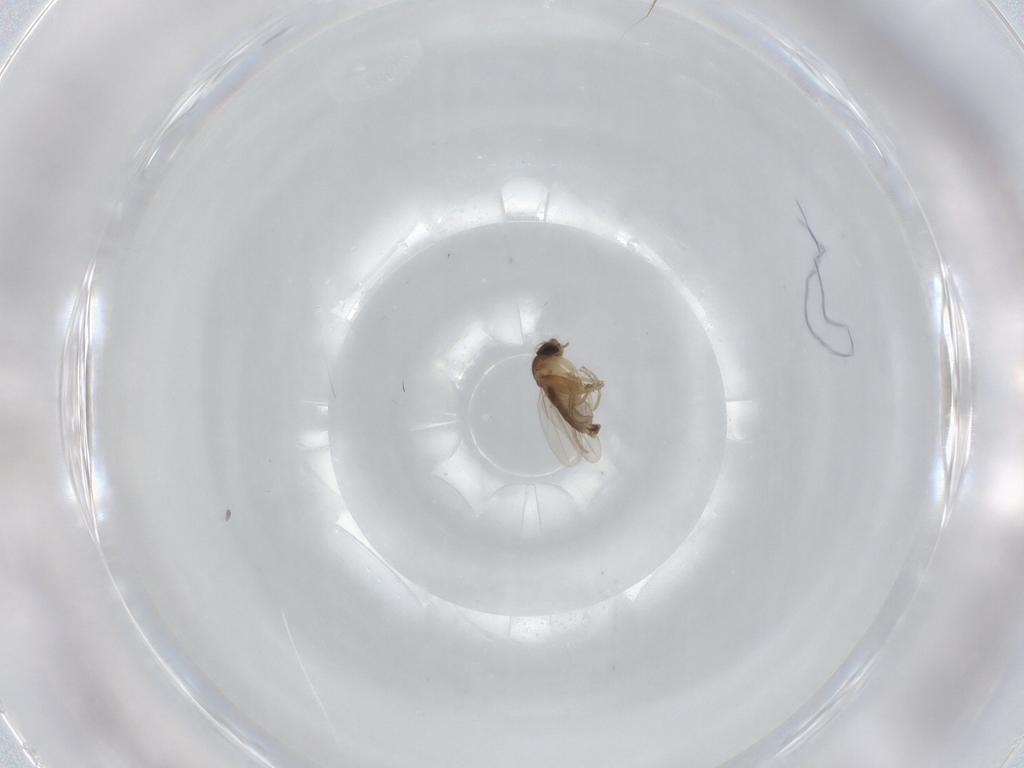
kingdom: Animalia
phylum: Arthropoda
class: Insecta
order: Diptera
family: Phoridae
